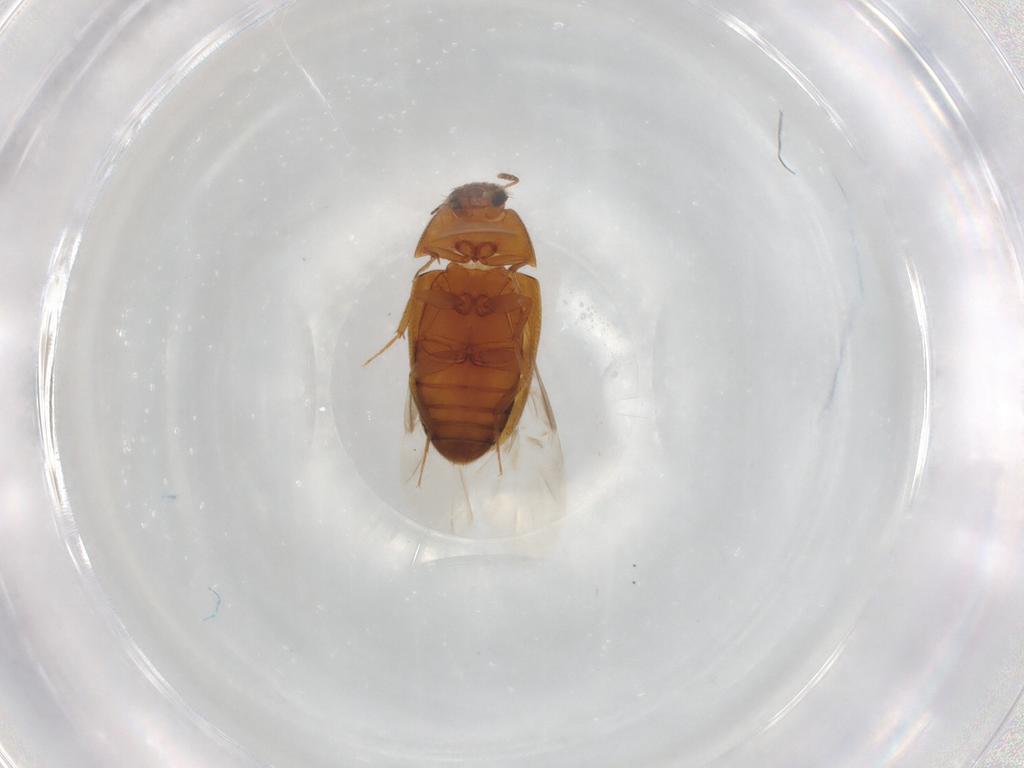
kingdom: Animalia
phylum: Arthropoda
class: Insecta
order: Coleoptera
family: Mycetophagidae
